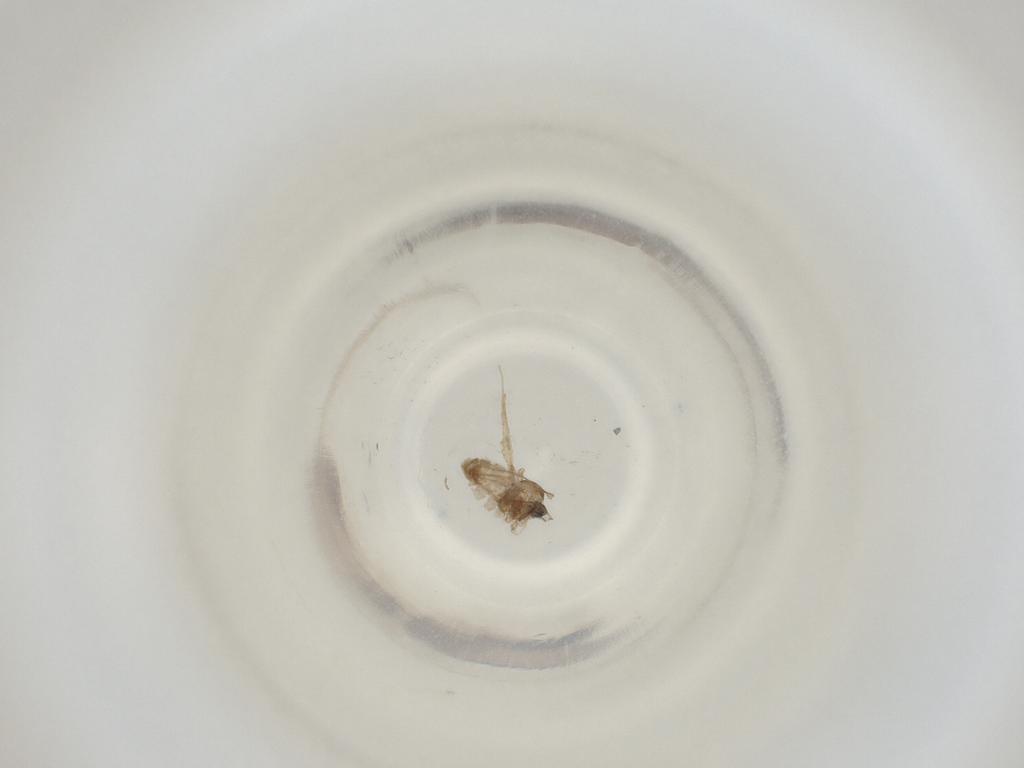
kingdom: Animalia
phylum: Arthropoda
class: Insecta
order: Diptera
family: Cecidomyiidae
